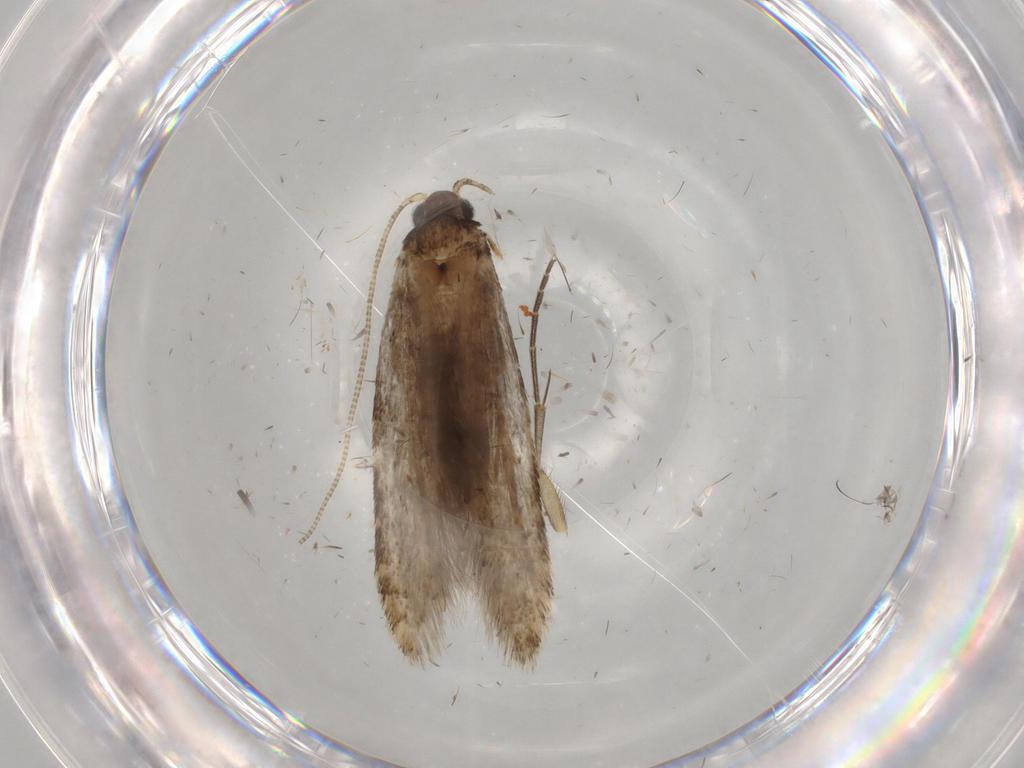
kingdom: Animalia
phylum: Arthropoda
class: Insecta
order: Lepidoptera
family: Tineidae
